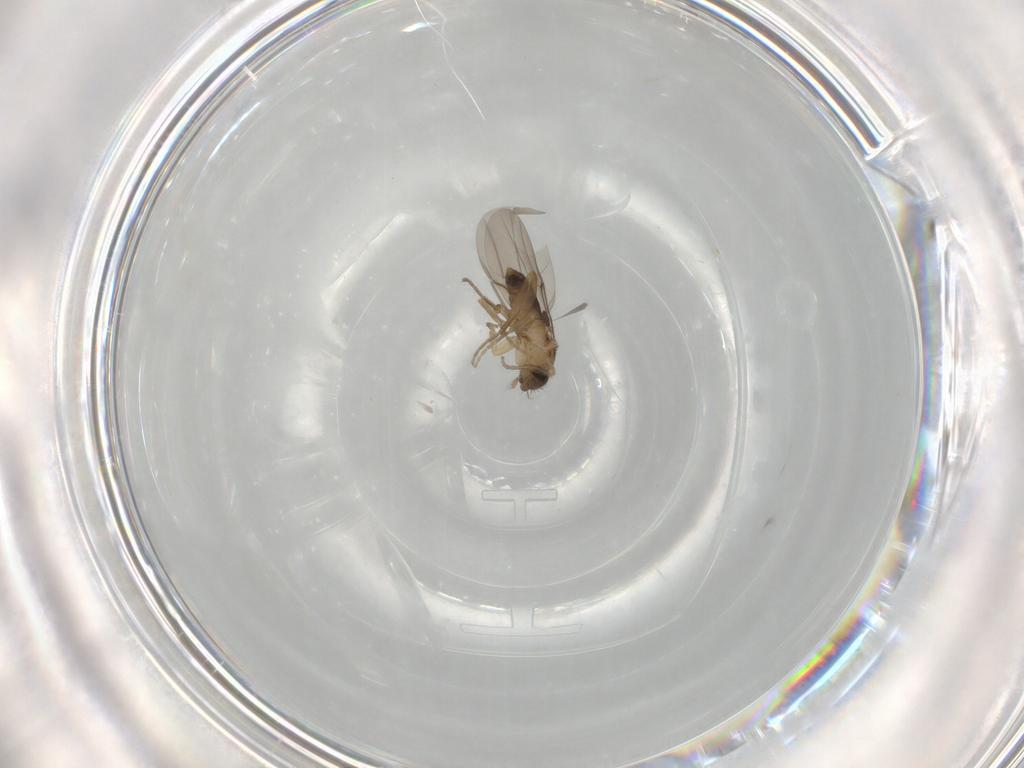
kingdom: Animalia
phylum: Arthropoda
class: Insecta
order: Diptera
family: Phoridae
